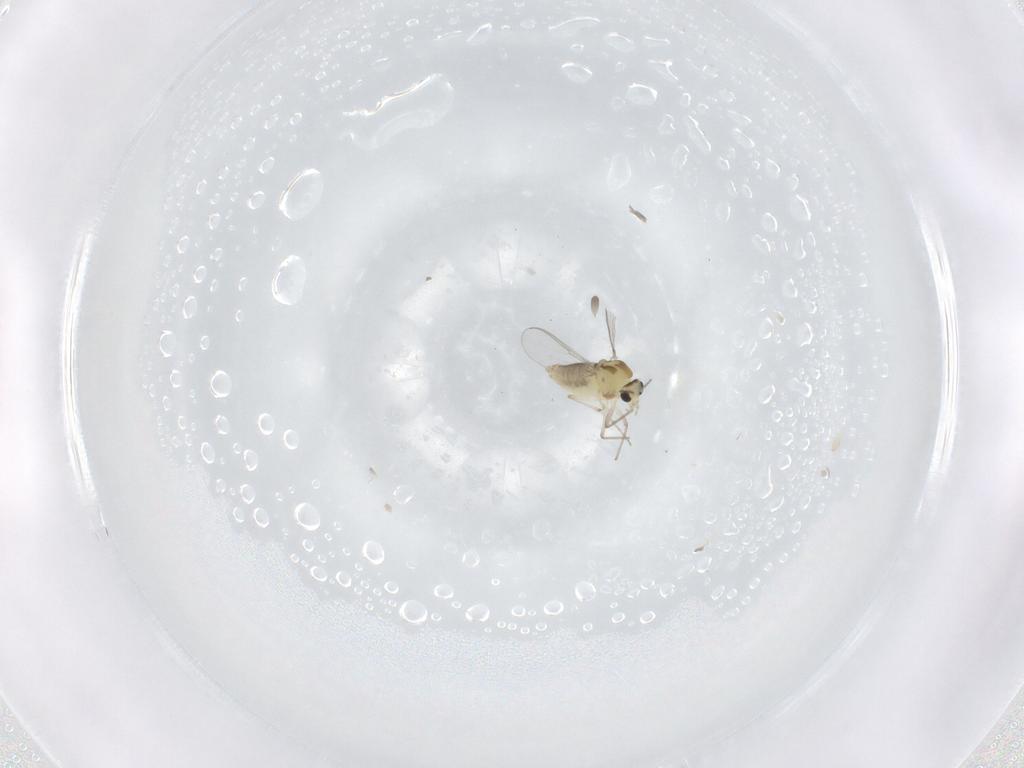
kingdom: Animalia
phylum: Arthropoda
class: Insecta
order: Diptera
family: Chironomidae
